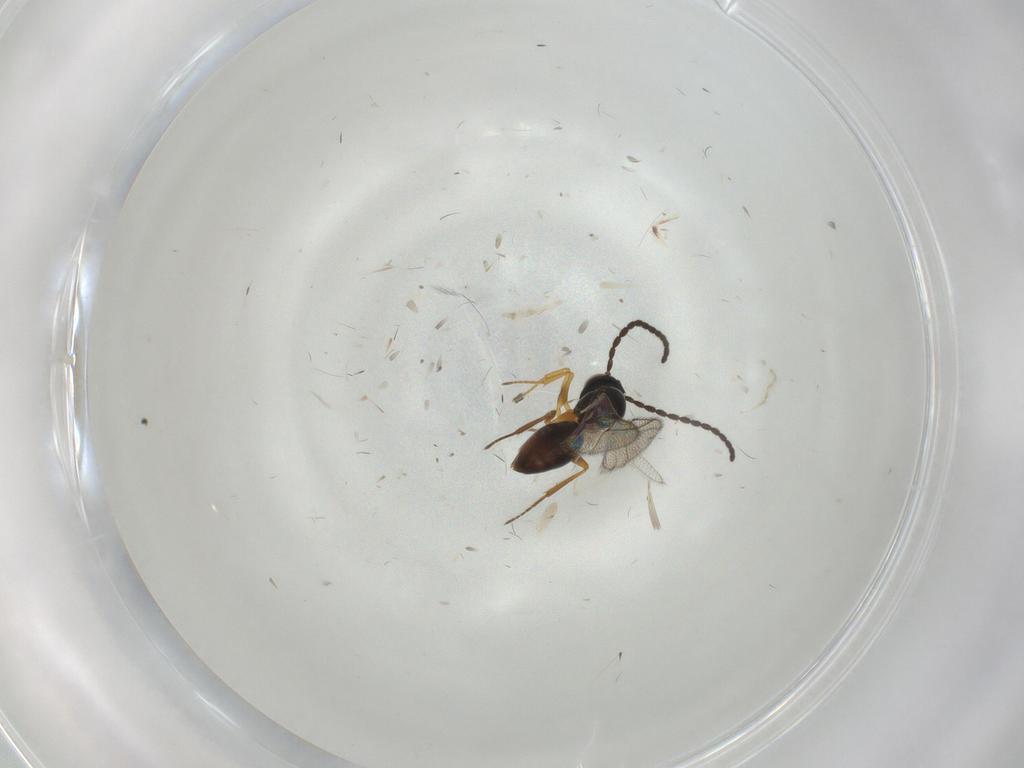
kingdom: Animalia
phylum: Arthropoda
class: Insecta
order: Hymenoptera
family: Figitidae
